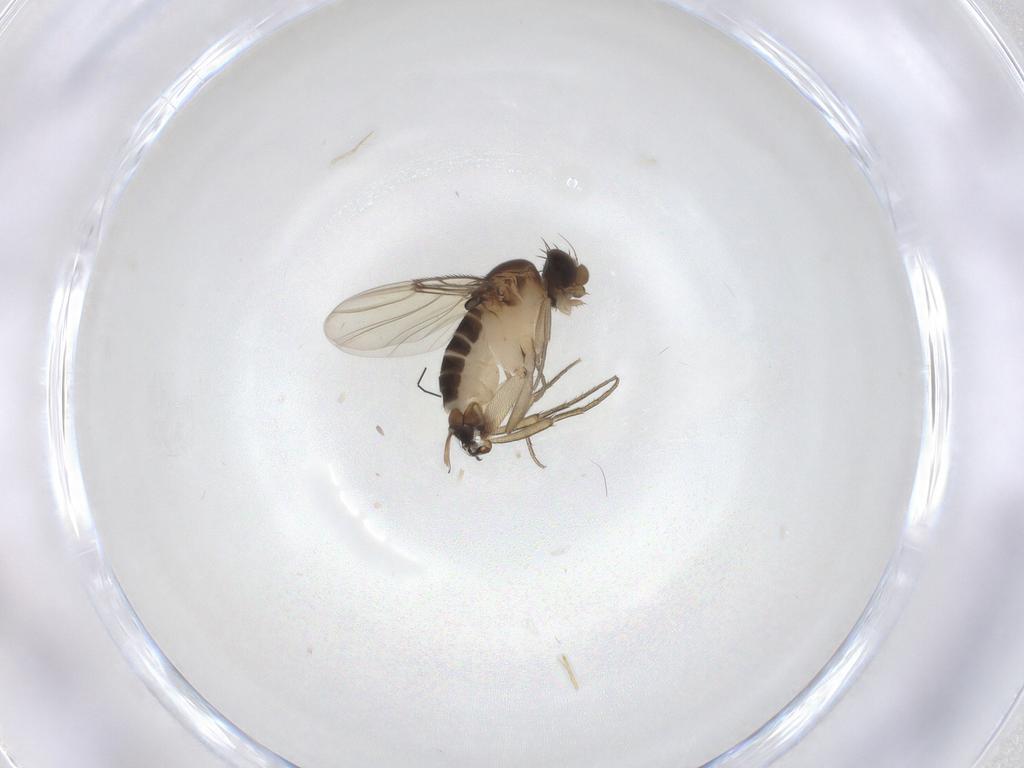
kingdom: Animalia
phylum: Arthropoda
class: Insecta
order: Diptera
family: Phoridae
